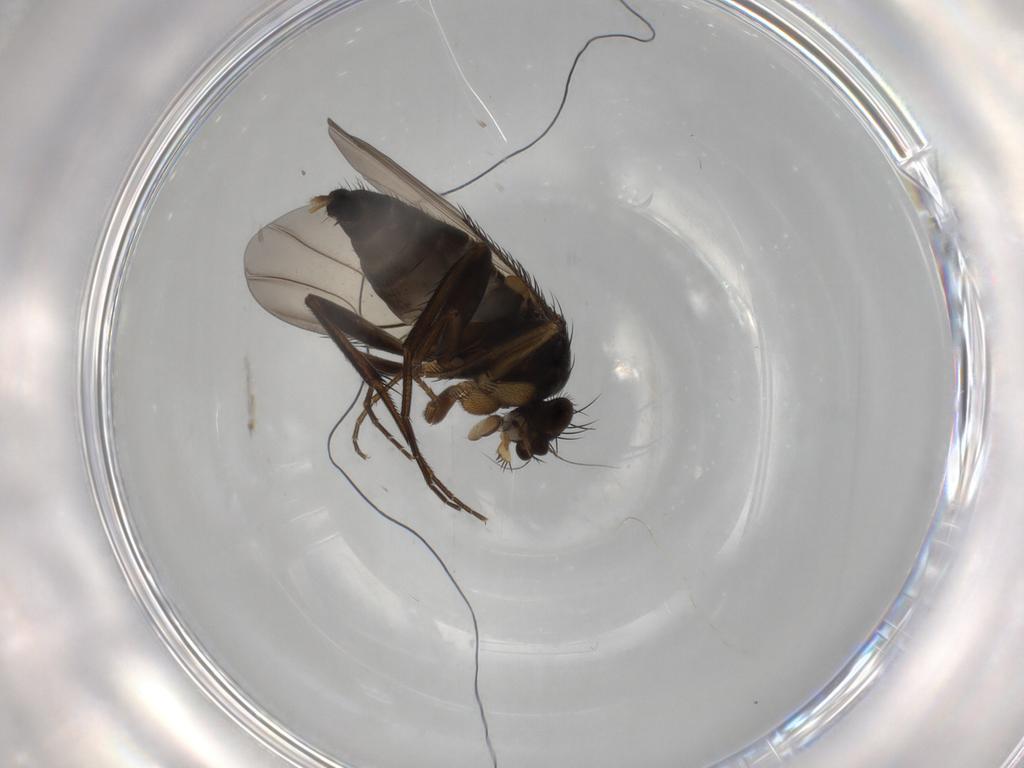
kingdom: Animalia
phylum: Arthropoda
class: Insecta
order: Diptera
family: Phoridae
